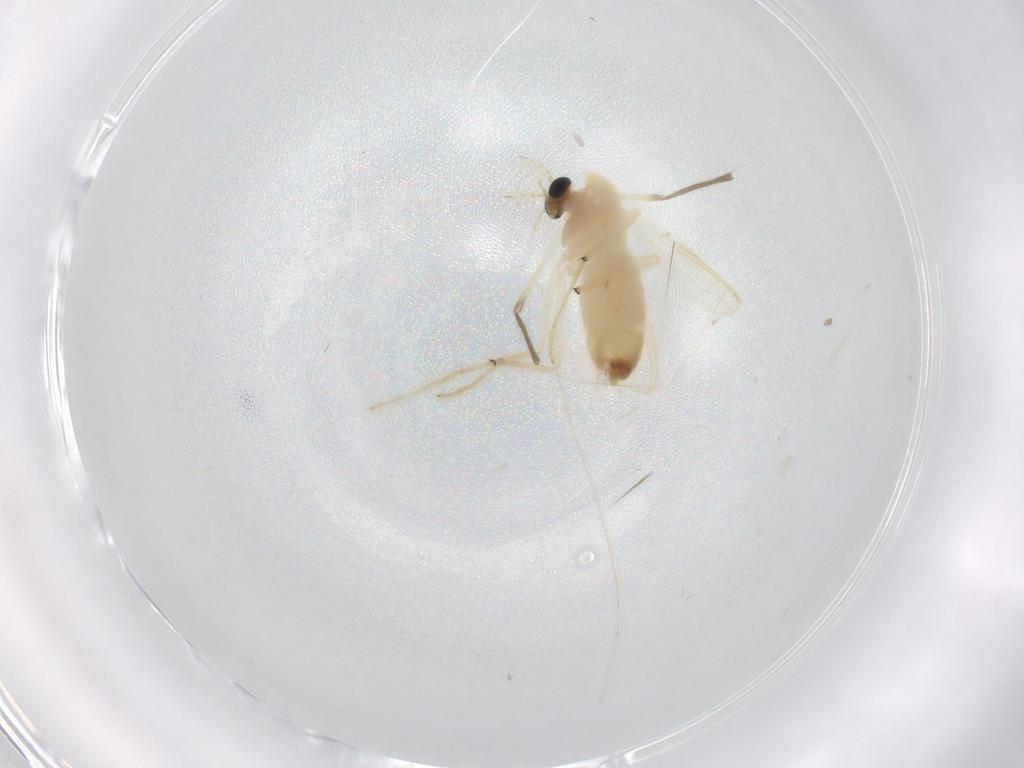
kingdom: Animalia
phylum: Arthropoda
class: Insecta
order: Diptera
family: Chironomidae
